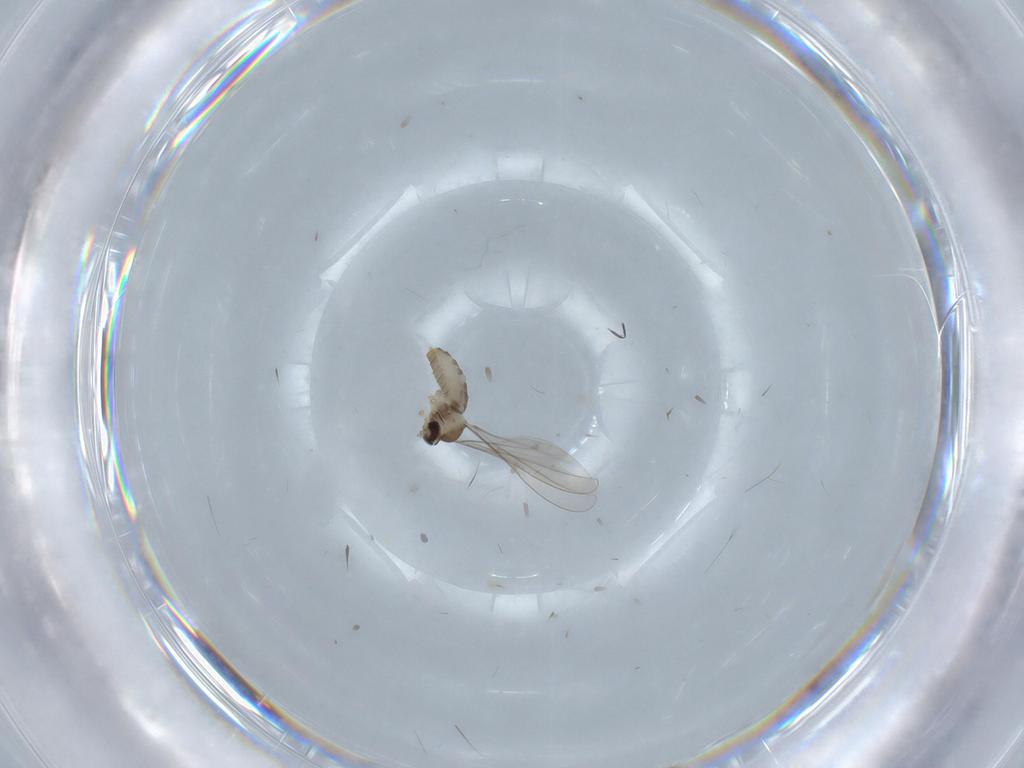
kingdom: Animalia
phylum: Arthropoda
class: Insecta
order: Diptera
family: Cecidomyiidae
